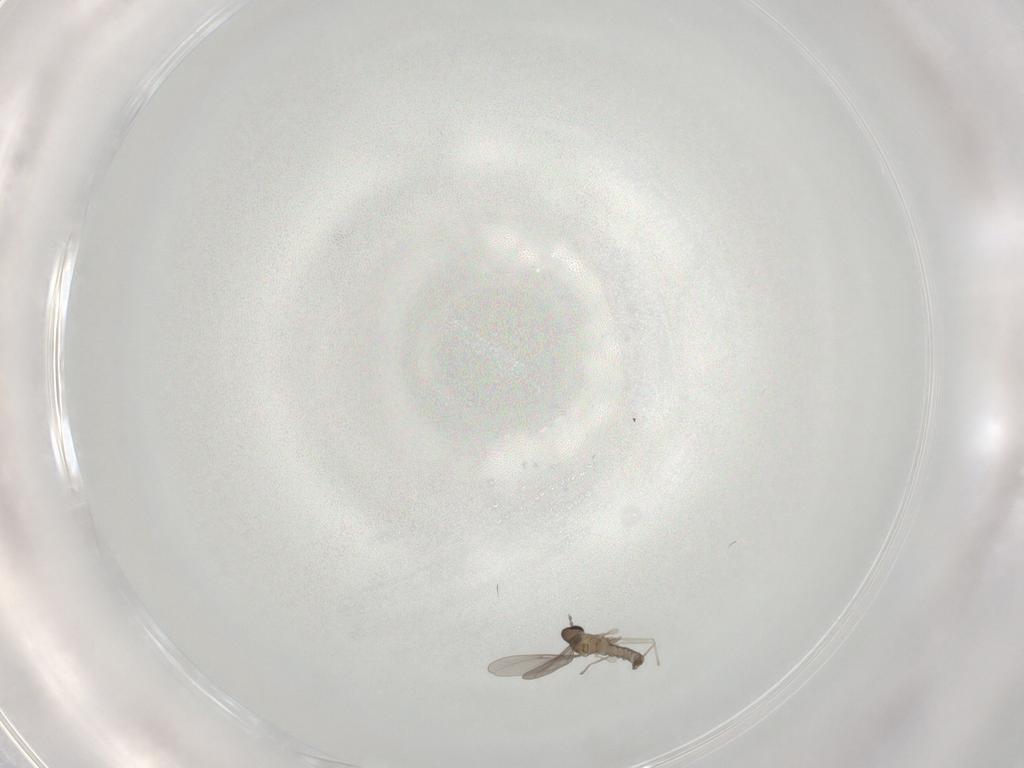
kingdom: Animalia
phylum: Arthropoda
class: Insecta
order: Diptera
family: Cecidomyiidae
